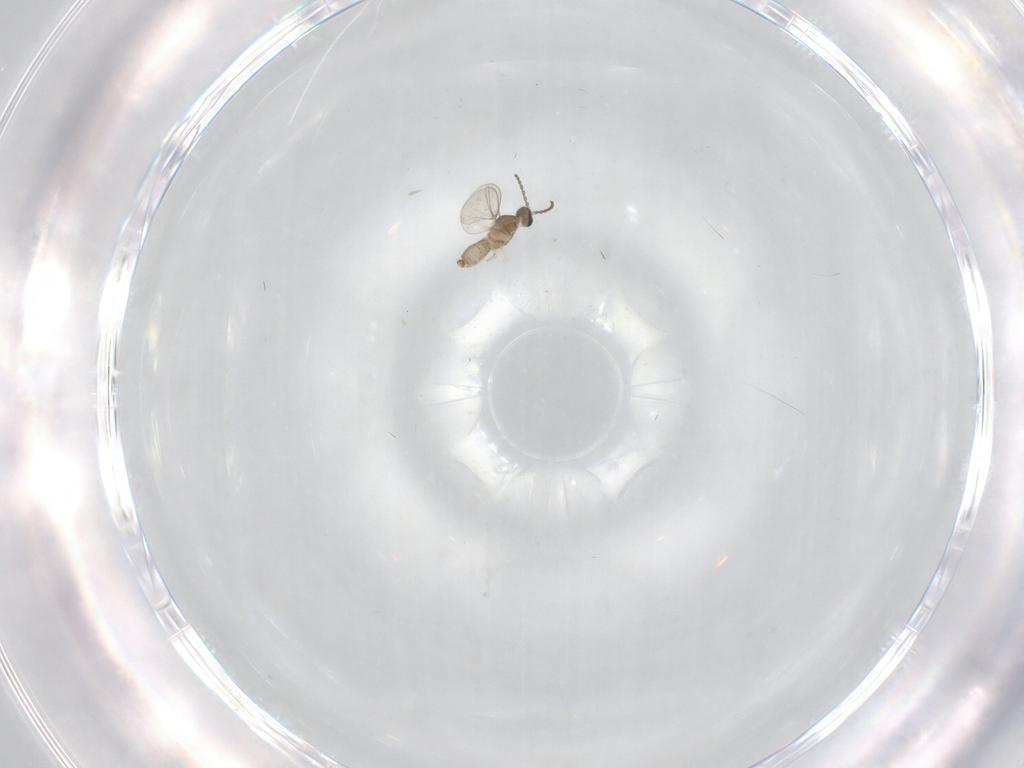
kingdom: Animalia
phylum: Arthropoda
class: Insecta
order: Diptera
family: Cecidomyiidae
